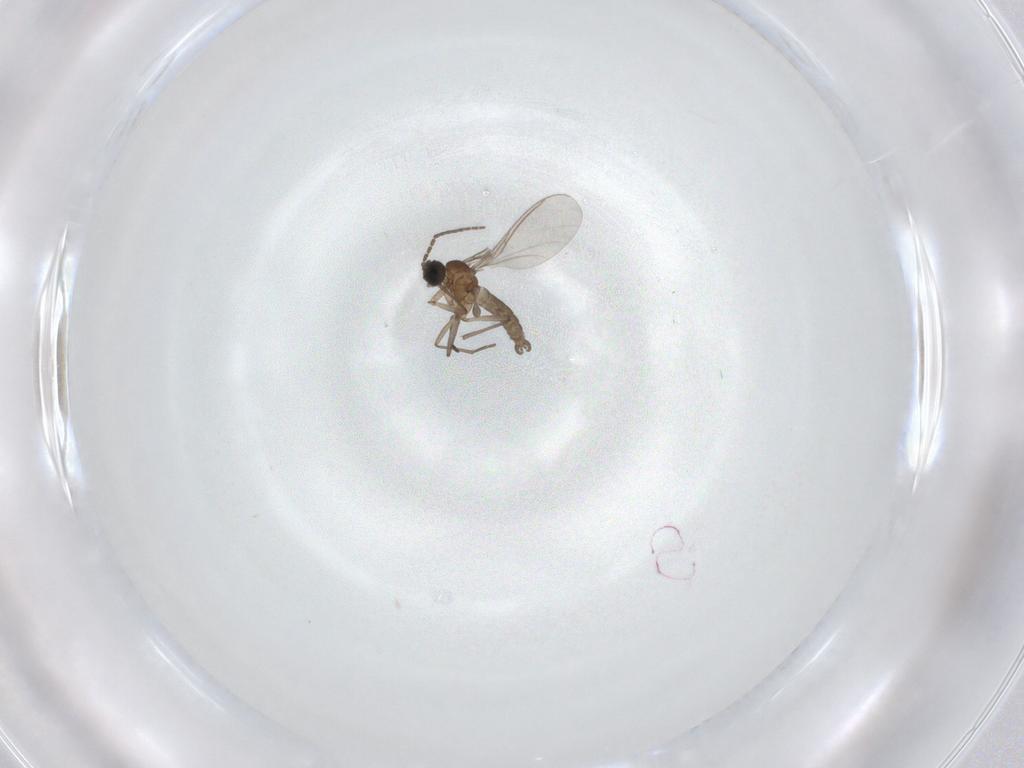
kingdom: Animalia
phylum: Arthropoda
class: Insecta
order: Diptera
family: Sciaridae
